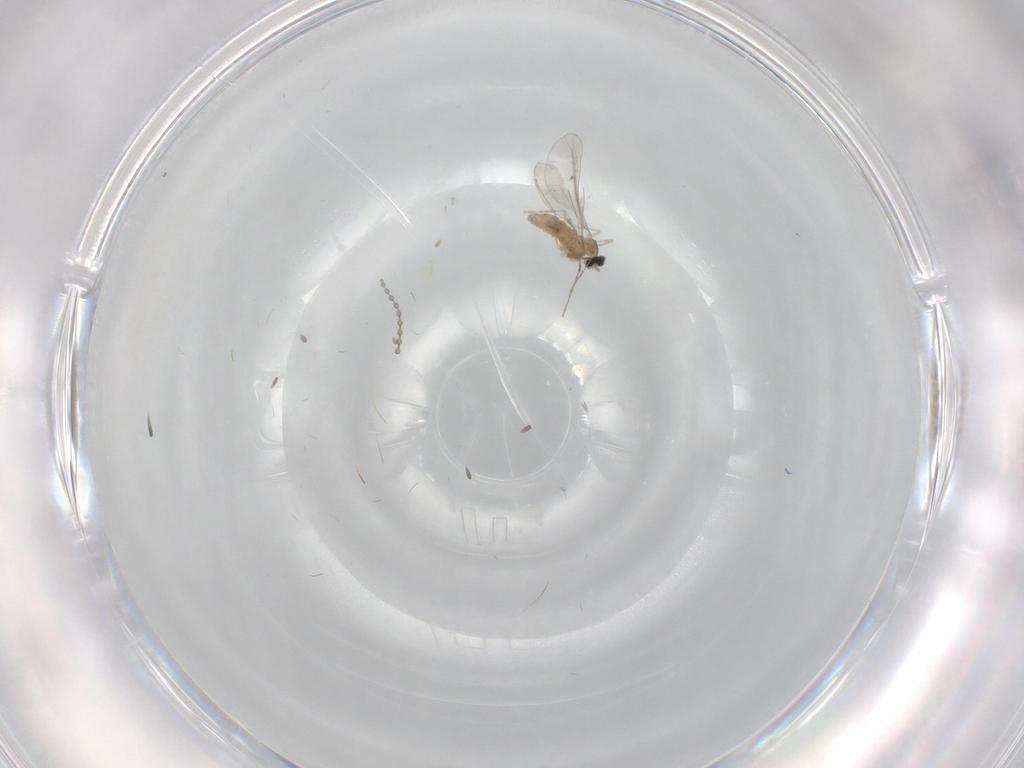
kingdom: Animalia
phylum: Arthropoda
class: Insecta
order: Diptera
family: Cecidomyiidae
